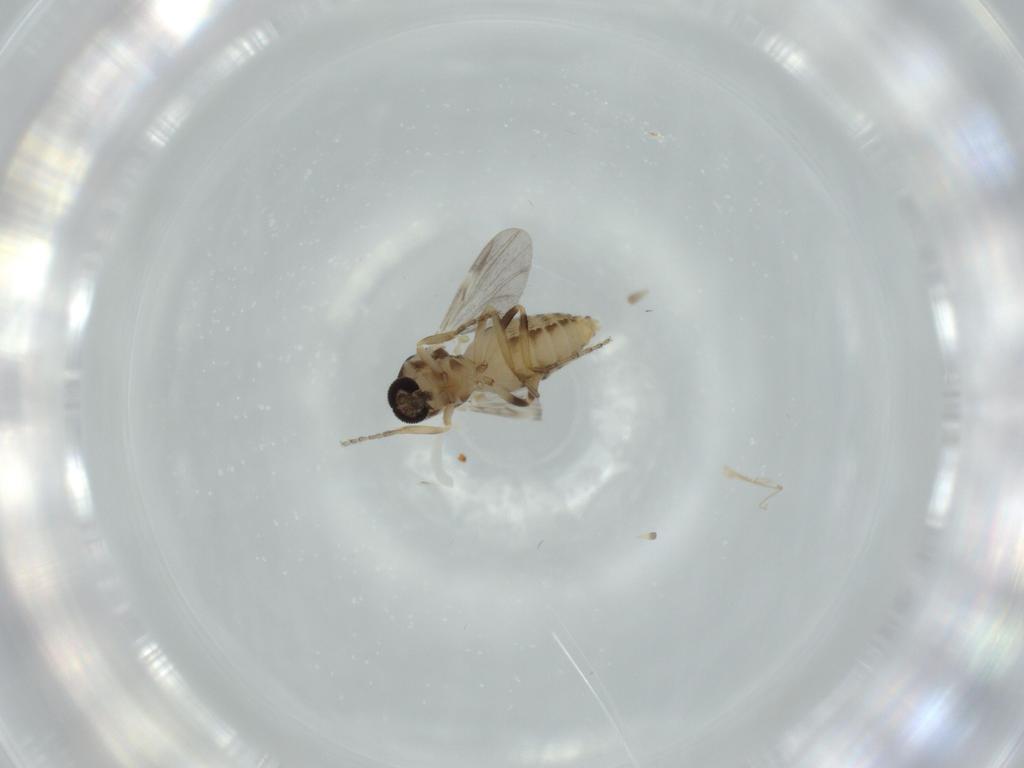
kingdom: Animalia
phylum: Arthropoda
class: Insecta
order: Diptera
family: Ceratopogonidae
